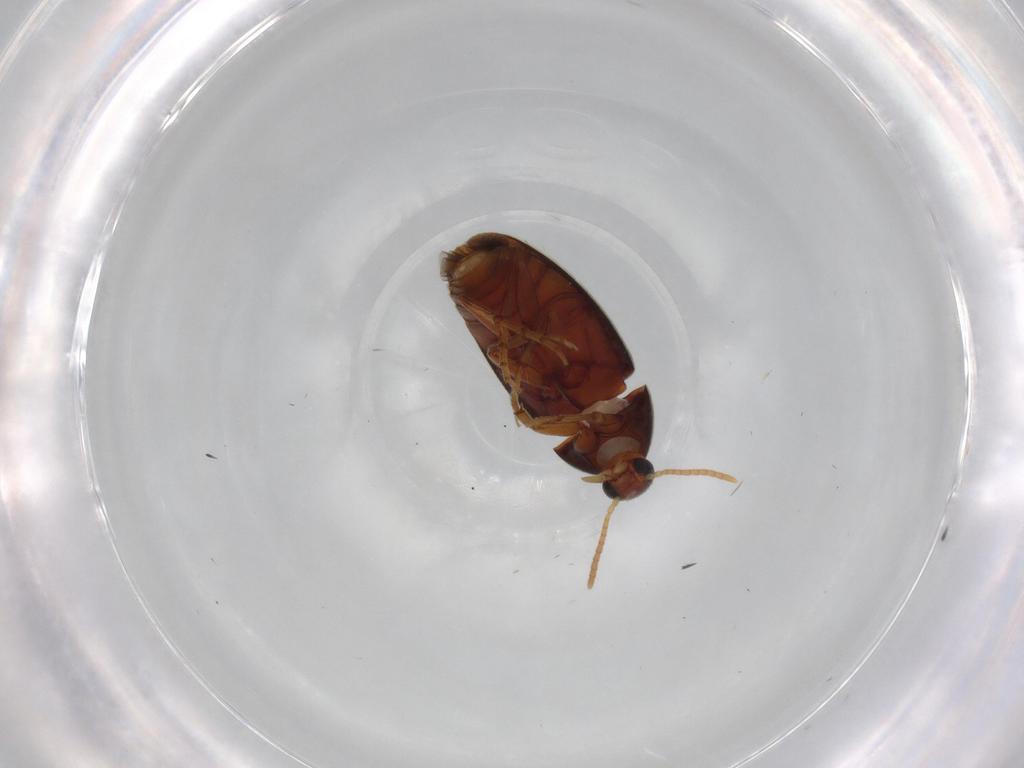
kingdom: Animalia
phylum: Arthropoda
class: Insecta
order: Coleoptera
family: Scraptiidae
